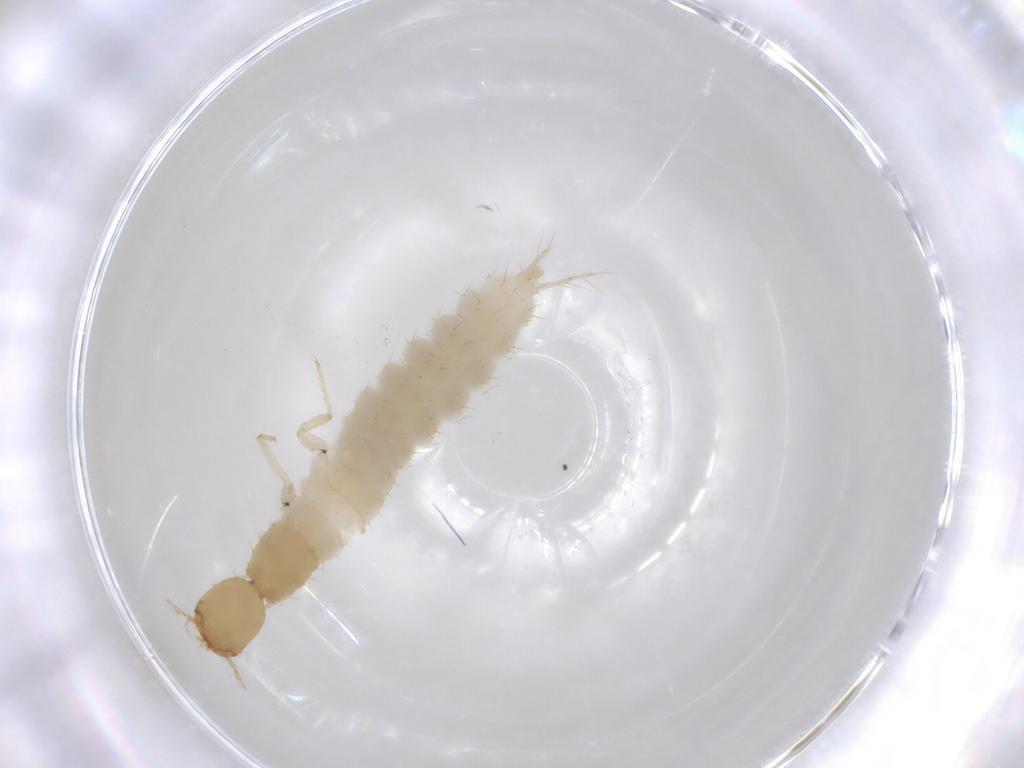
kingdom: Animalia
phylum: Arthropoda
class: Insecta
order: Coleoptera
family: Staphylinidae
